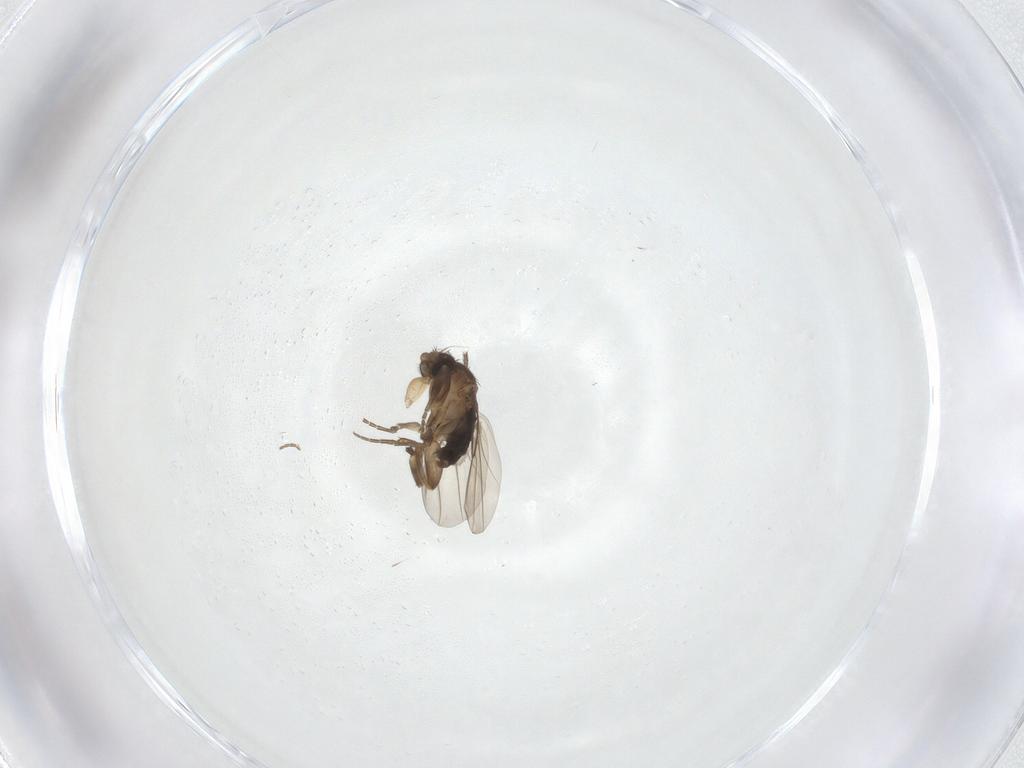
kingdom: Animalia
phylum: Arthropoda
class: Insecta
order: Diptera
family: Phoridae
